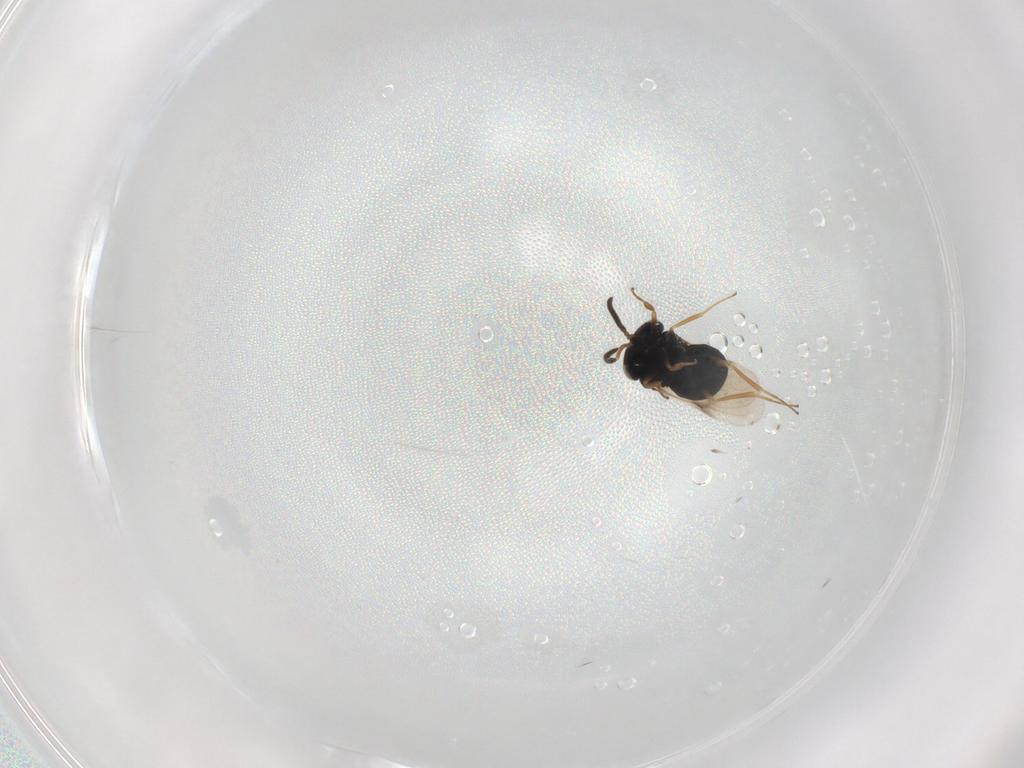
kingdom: Animalia
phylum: Arthropoda
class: Insecta
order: Hymenoptera
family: Scelionidae
